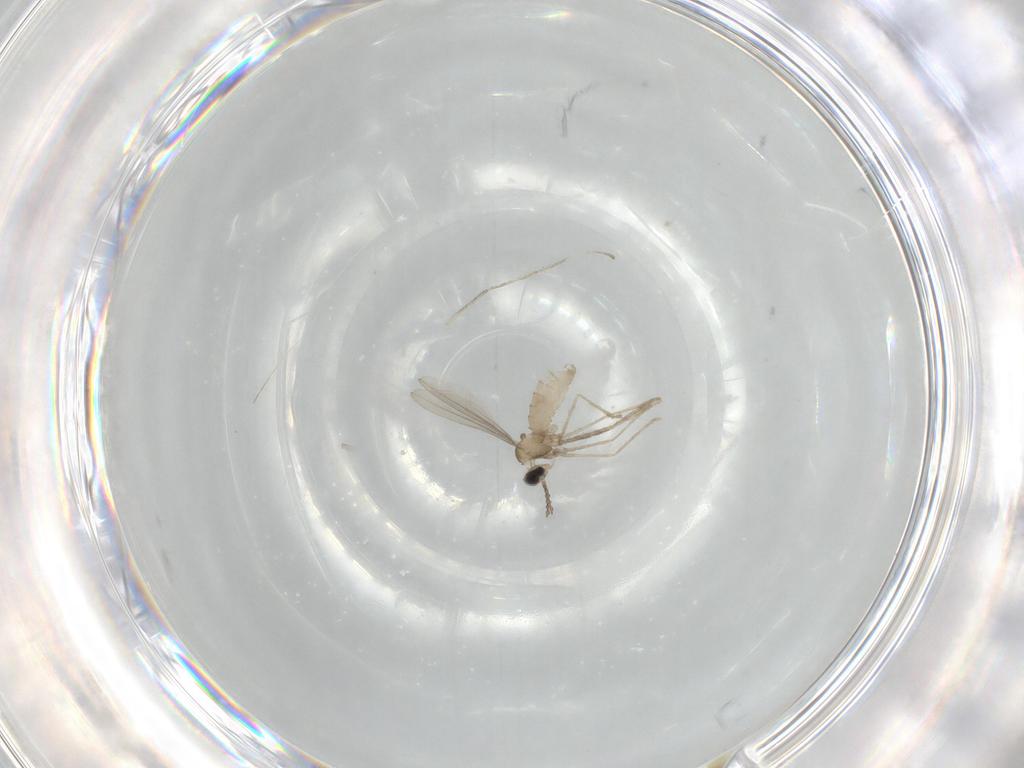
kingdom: Animalia
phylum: Arthropoda
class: Insecta
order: Diptera
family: Cecidomyiidae
